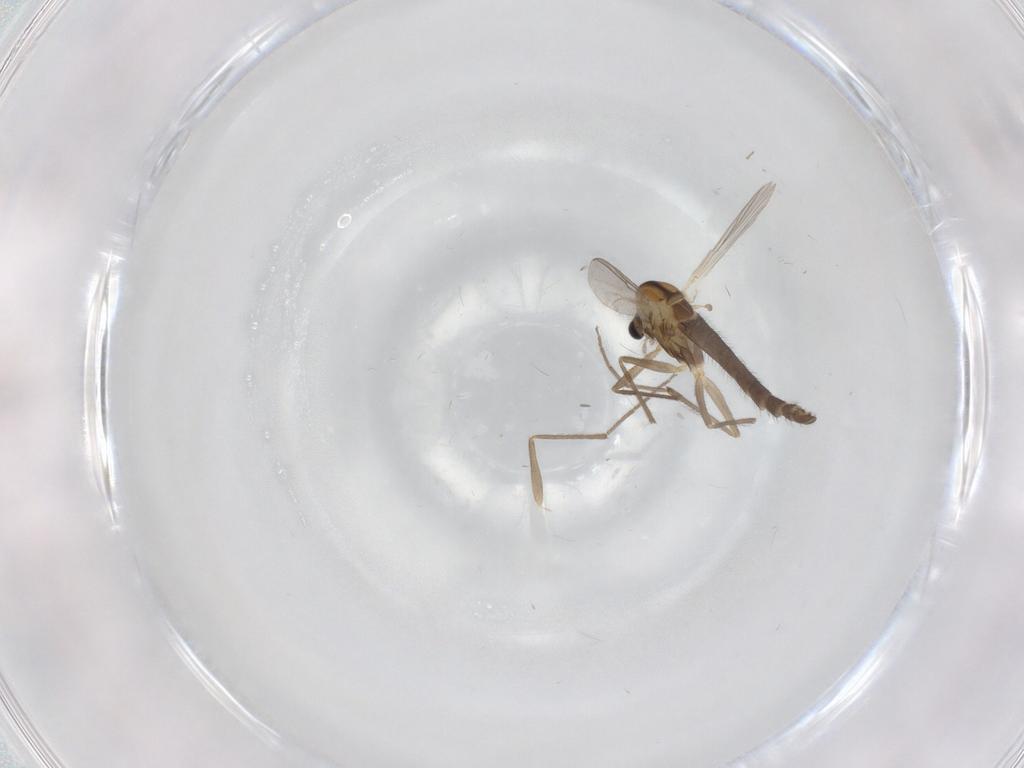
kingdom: Animalia
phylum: Arthropoda
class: Insecta
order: Diptera
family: Chironomidae
